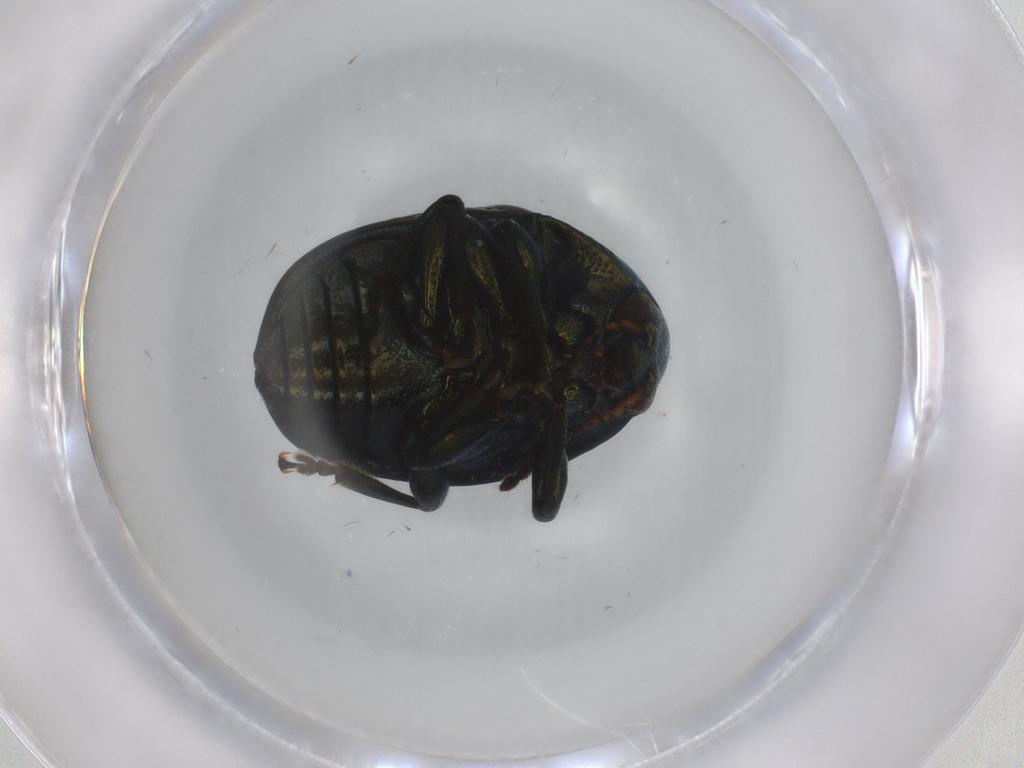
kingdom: Animalia
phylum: Arthropoda
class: Insecta
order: Coleoptera
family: Chrysomelidae
